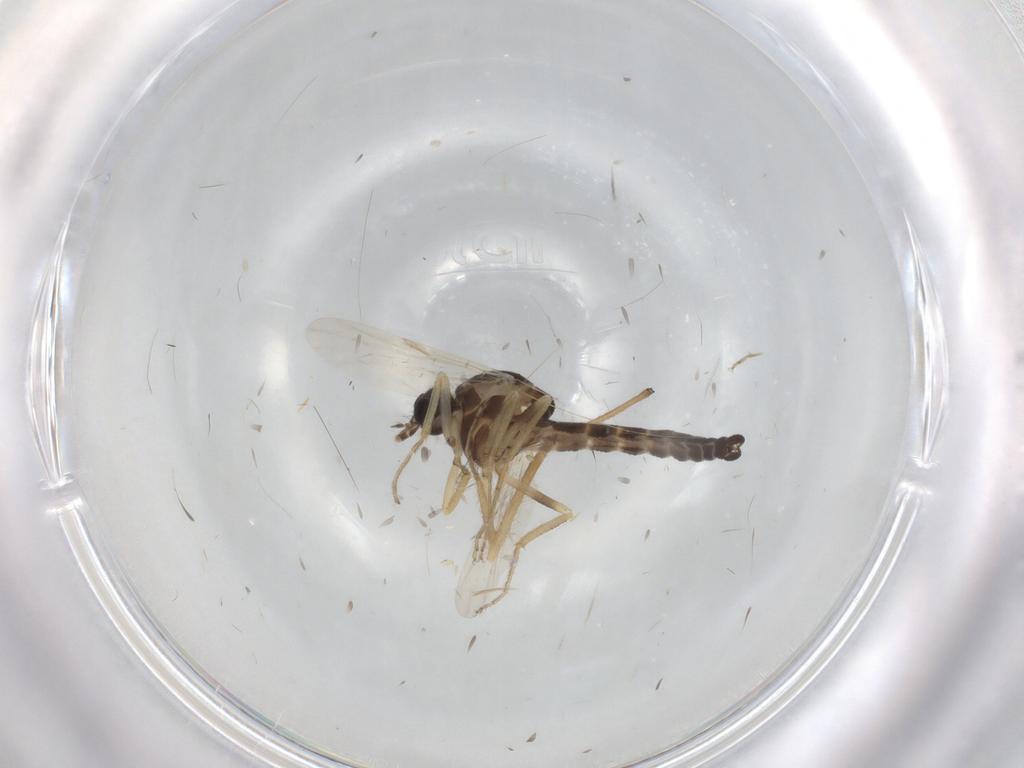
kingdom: Animalia
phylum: Arthropoda
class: Insecta
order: Diptera
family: Ceratopogonidae
